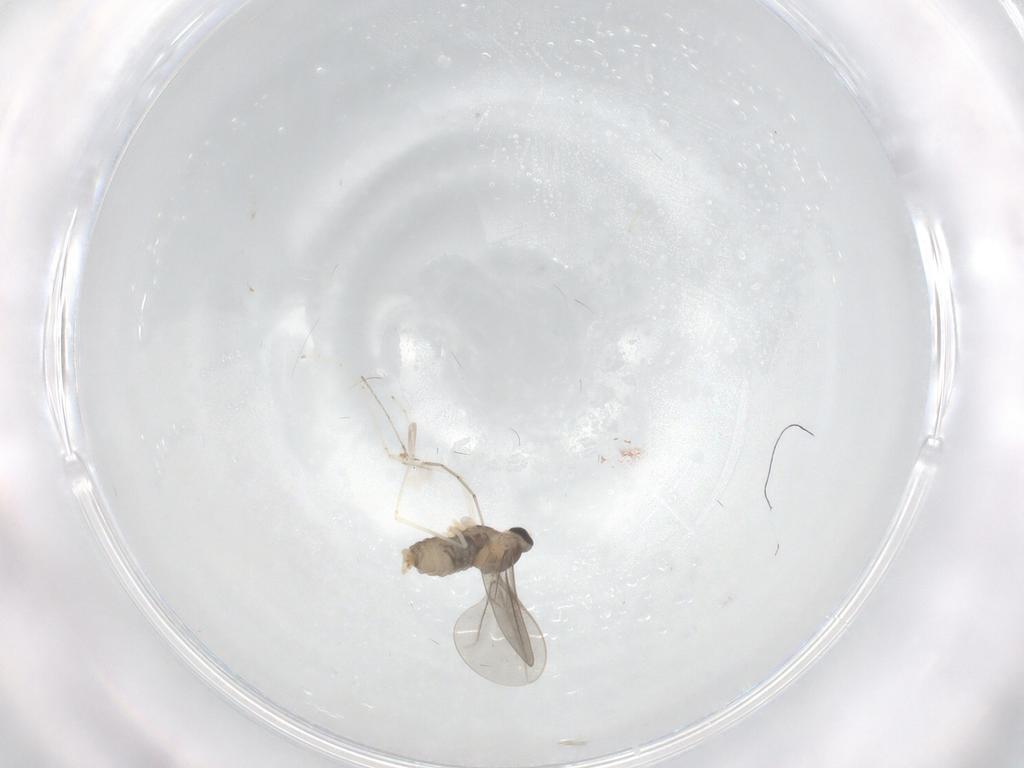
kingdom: Animalia
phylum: Arthropoda
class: Insecta
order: Diptera
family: Cecidomyiidae
